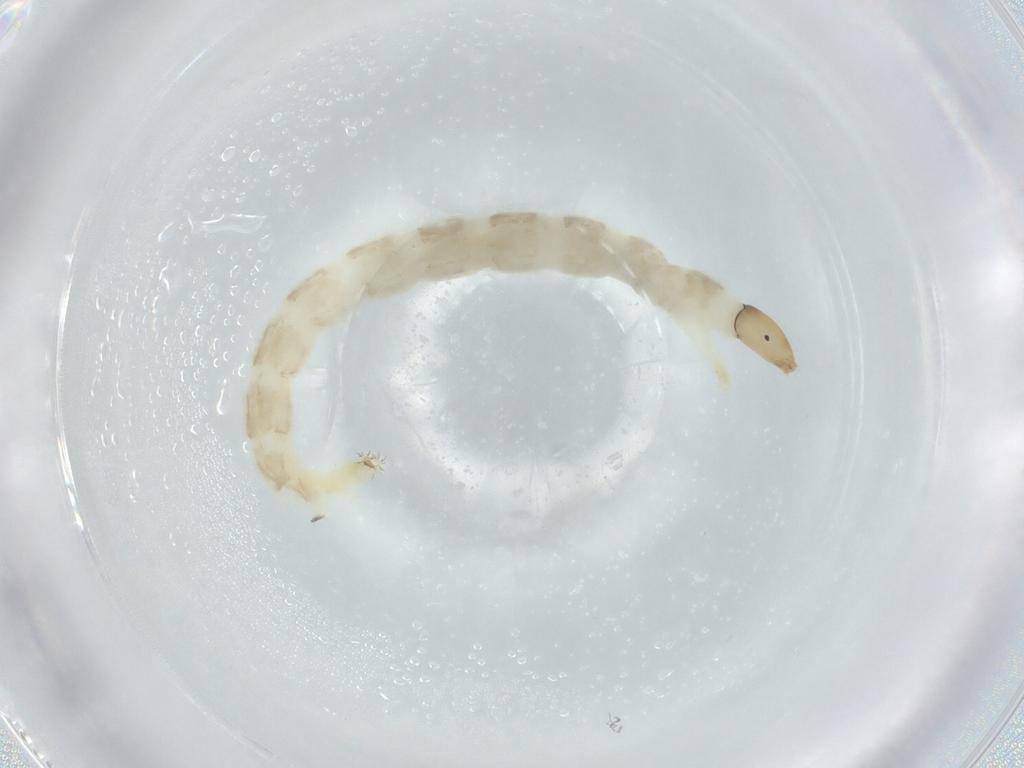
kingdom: Animalia
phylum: Arthropoda
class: Insecta
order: Diptera
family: Chironomidae
